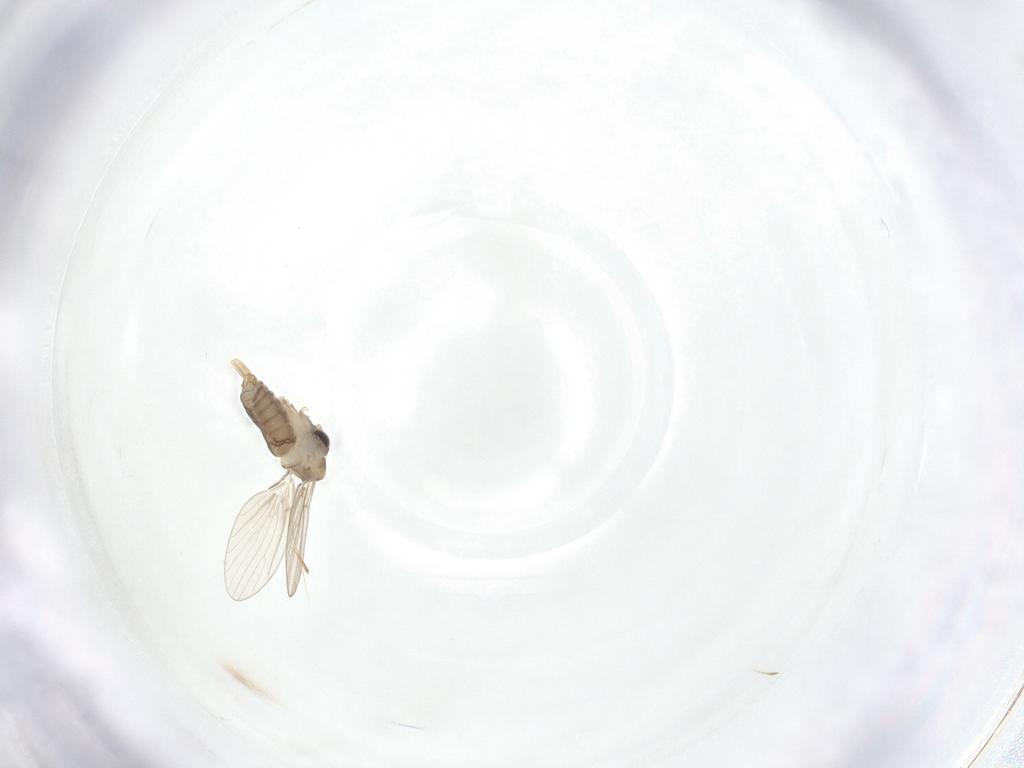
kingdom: Animalia
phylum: Arthropoda
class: Insecta
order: Diptera
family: Cecidomyiidae
